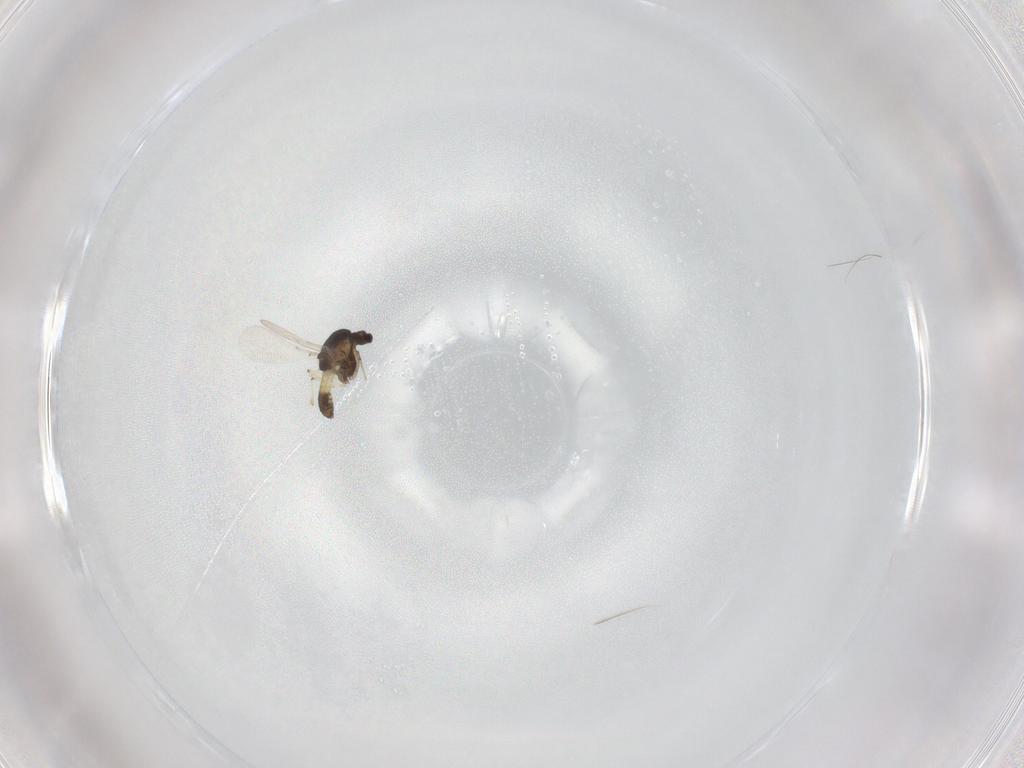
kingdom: Animalia
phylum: Arthropoda
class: Insecta
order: Diptera
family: Chironomidae
